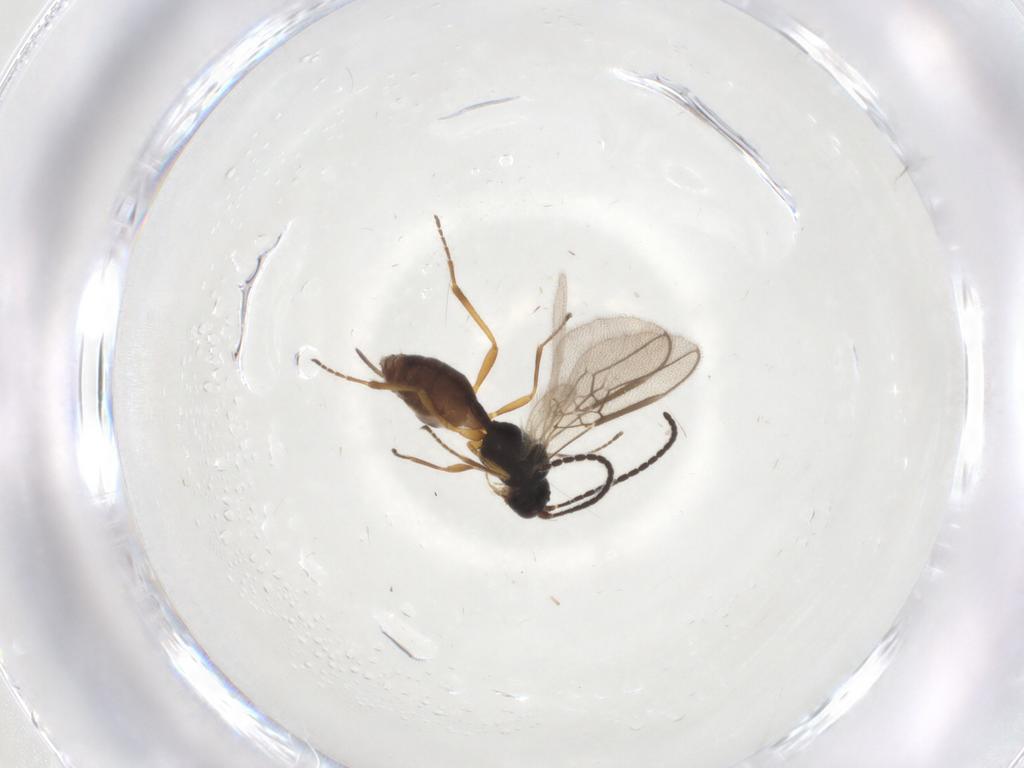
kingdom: Animalia
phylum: Arthropoda
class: Insecta
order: Hymenoptera
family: Braconidae
